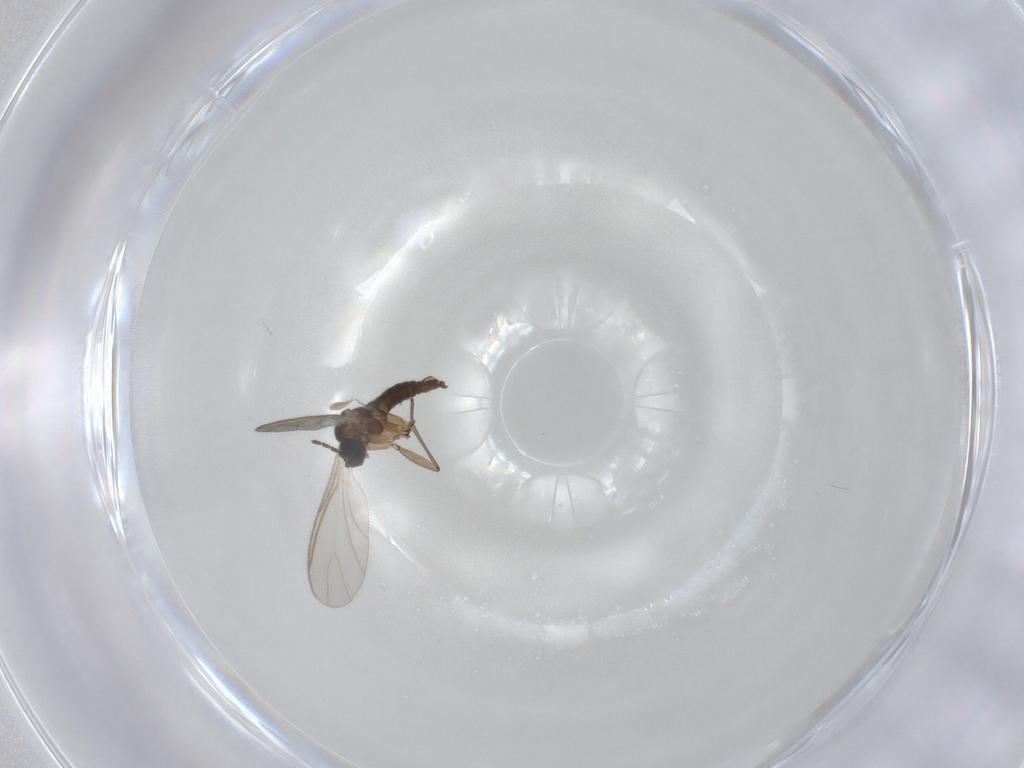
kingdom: Animalia
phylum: Arthropoda
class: Insecta
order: Diptera
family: Sciaridae
